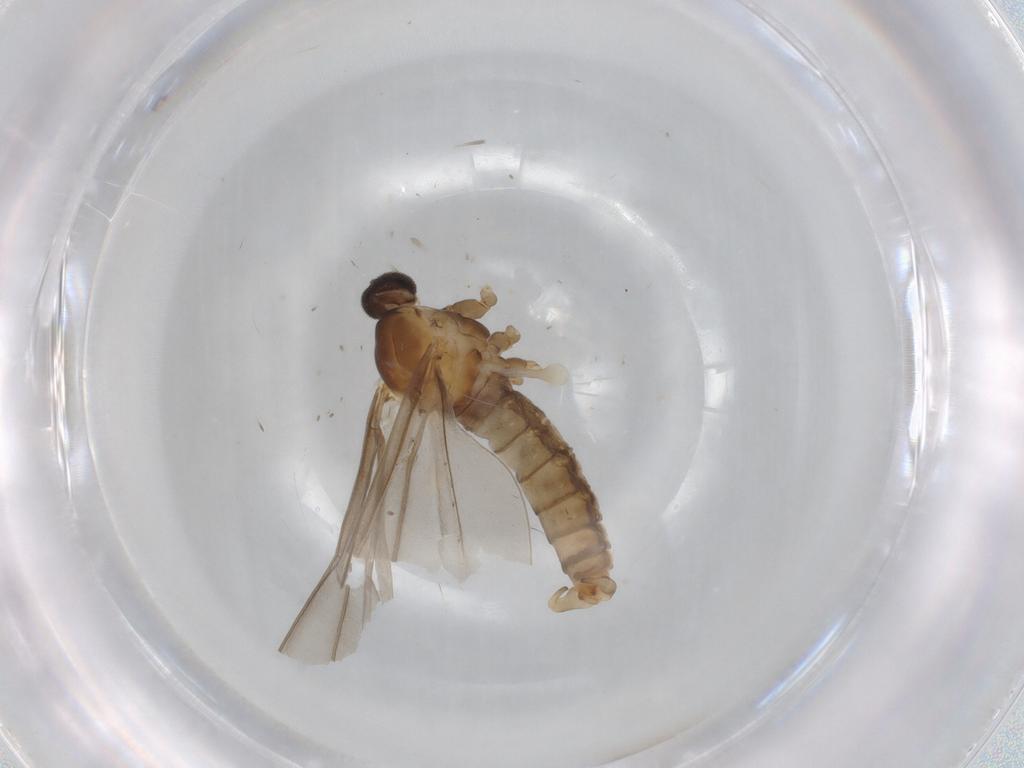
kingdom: Animalia
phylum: Arthropoda
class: Insecta
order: Diptera
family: Cecidomyiidae
